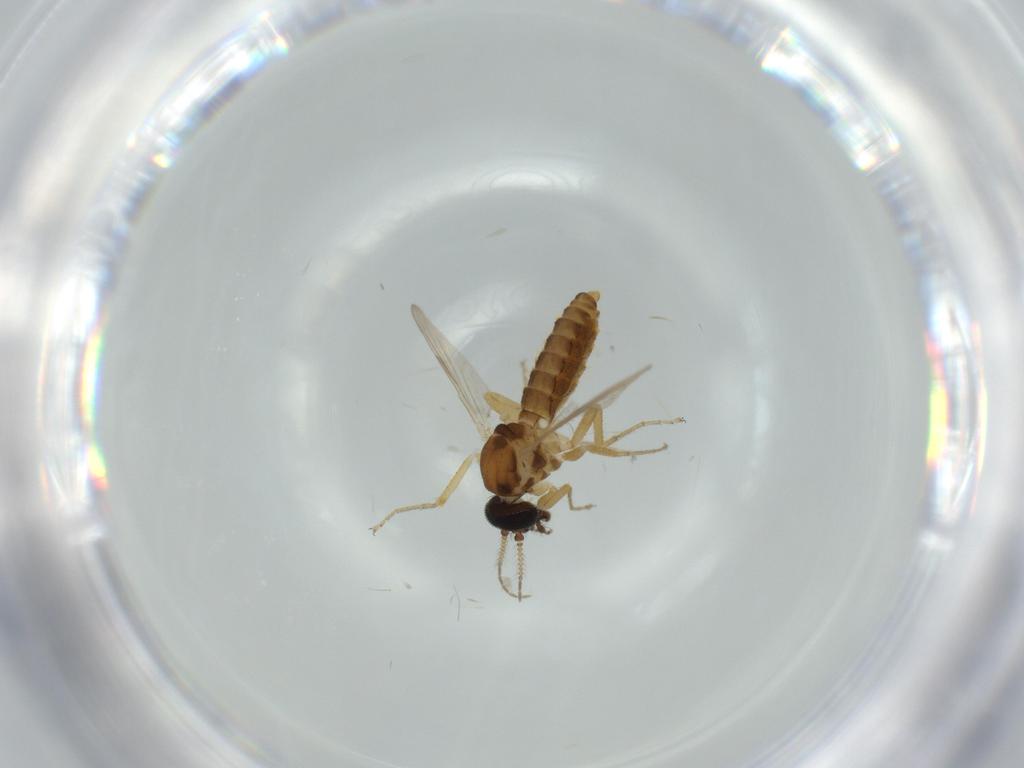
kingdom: Animalia
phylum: Arthropoda
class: Insecta
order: Diptera
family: Ceratopogonidae
